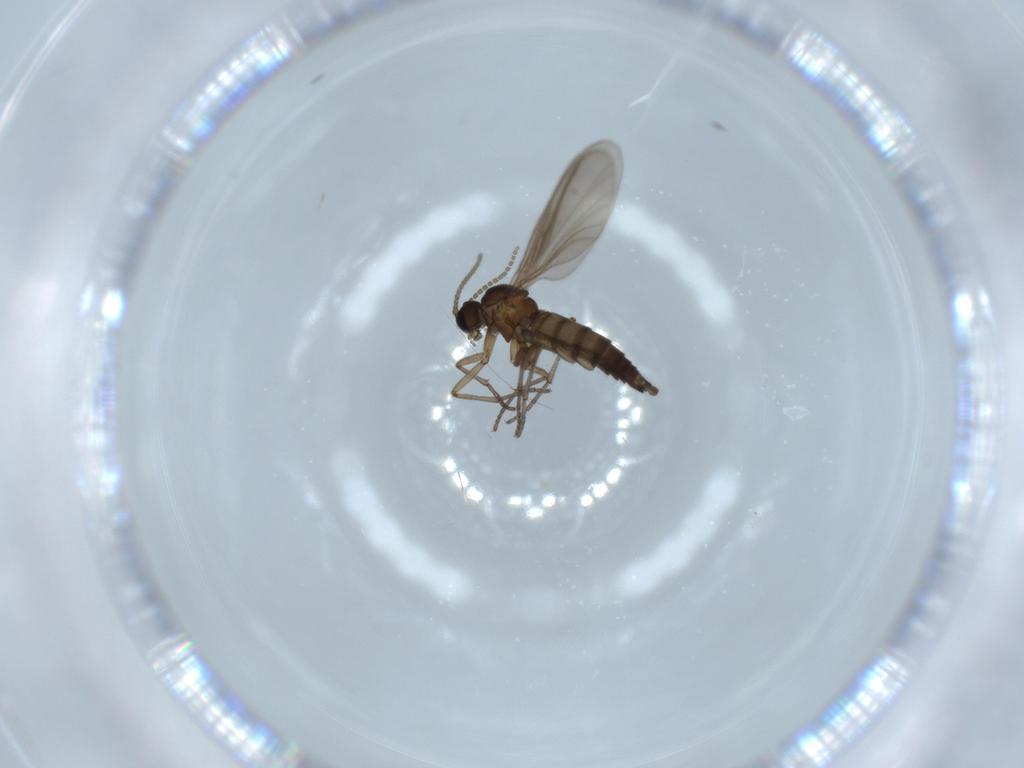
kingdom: Animalia
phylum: Arthropoda
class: Insecta
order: Diptera
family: Sciaridae
